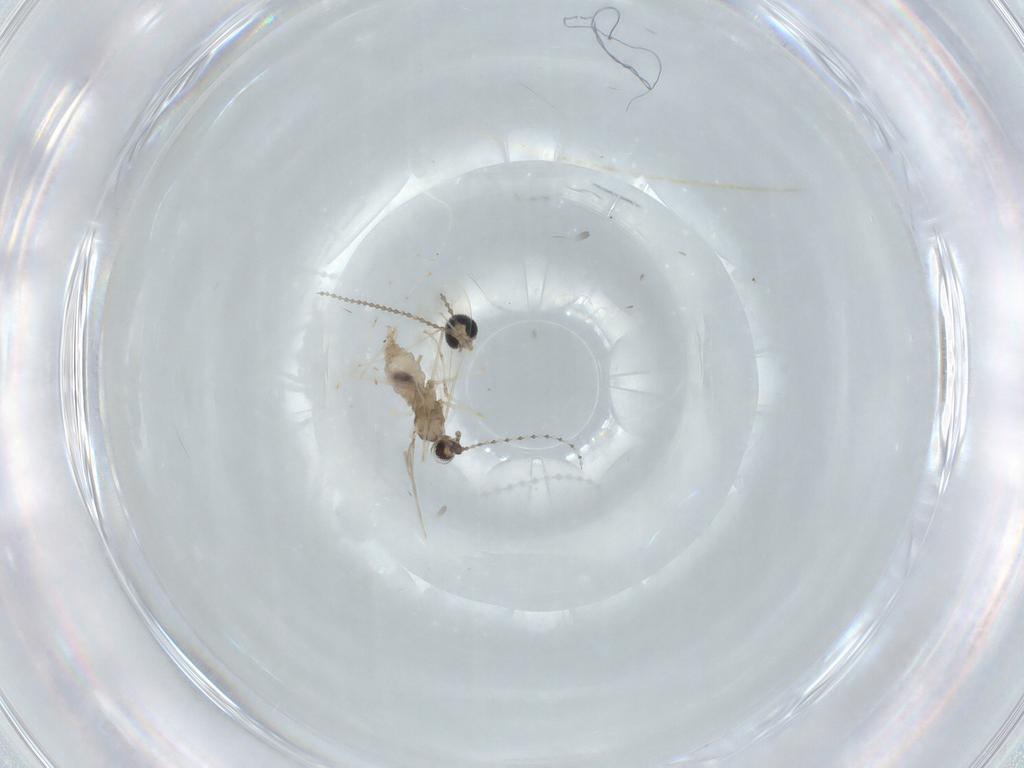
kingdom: Animalia
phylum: Arthropoda
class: Insecta
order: Diptera
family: Cecidomyiidae
